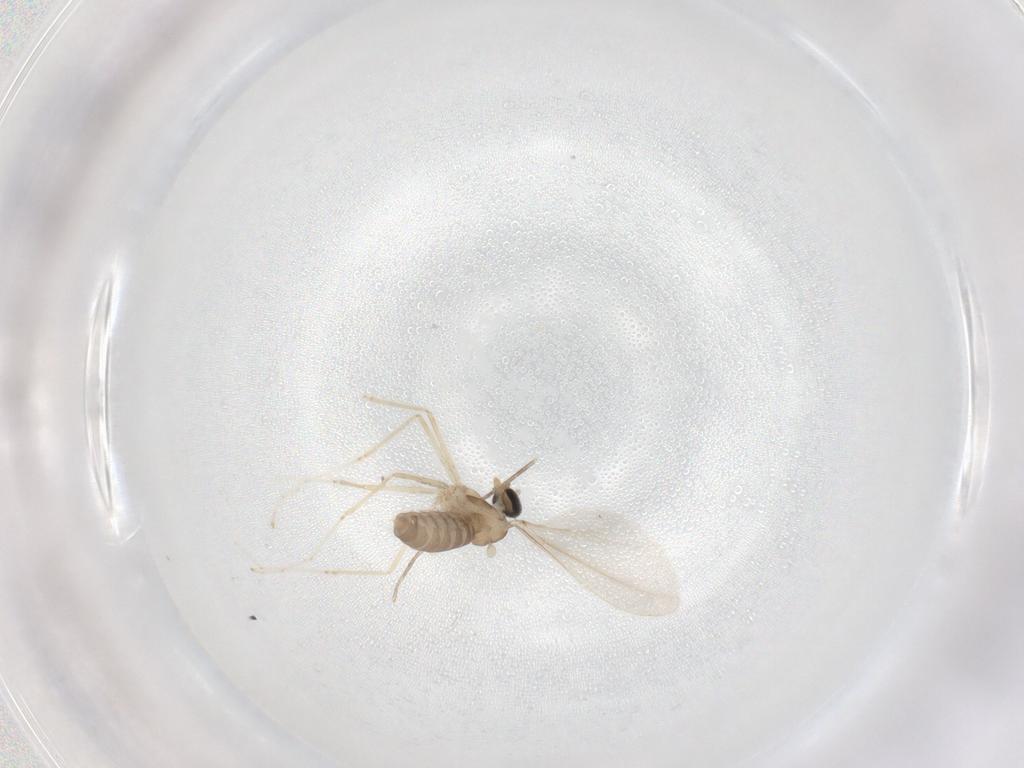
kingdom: Animalia
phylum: Arthropoda
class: Insecta
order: Diptera
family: Cecidomyiidae
